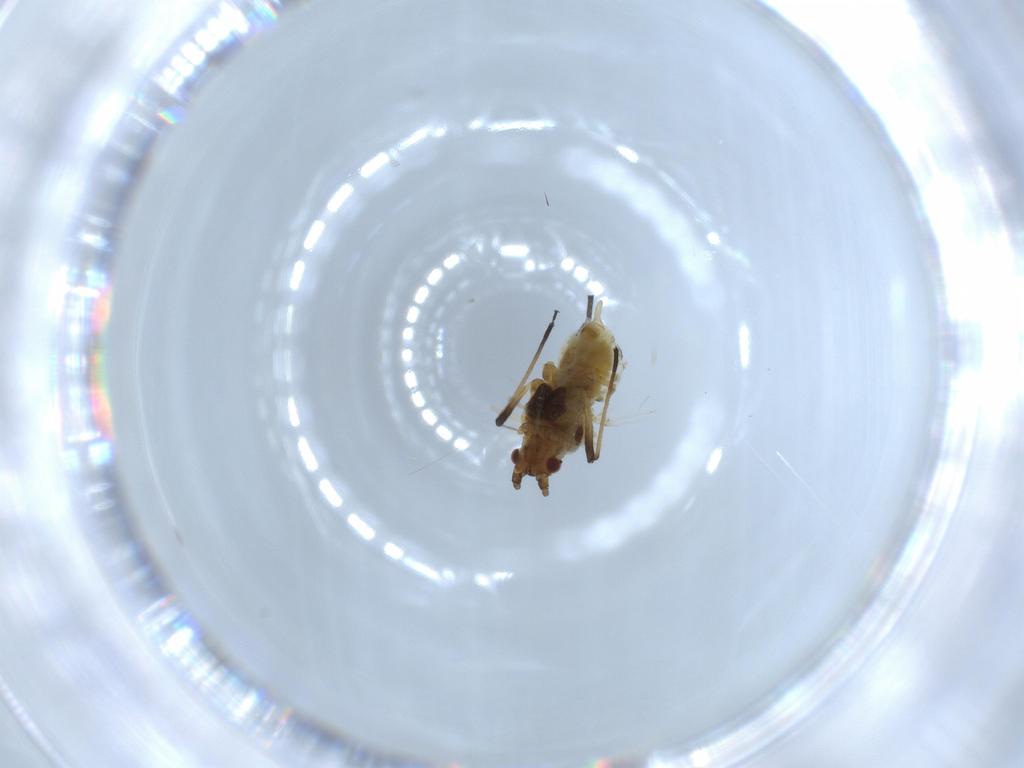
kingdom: Animalia
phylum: Arthropoda
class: Insecta
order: Hemiptera
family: Aphididae
